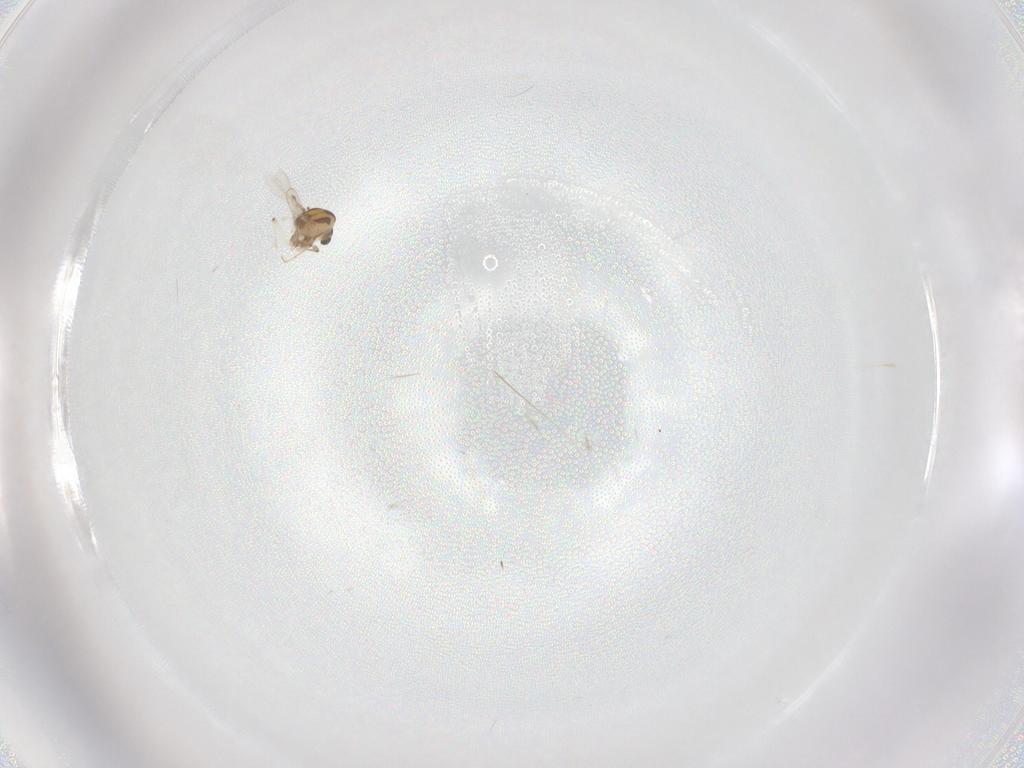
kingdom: Animalia
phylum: Arthropoda
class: Insecta
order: Diptera
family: Chironomidae
